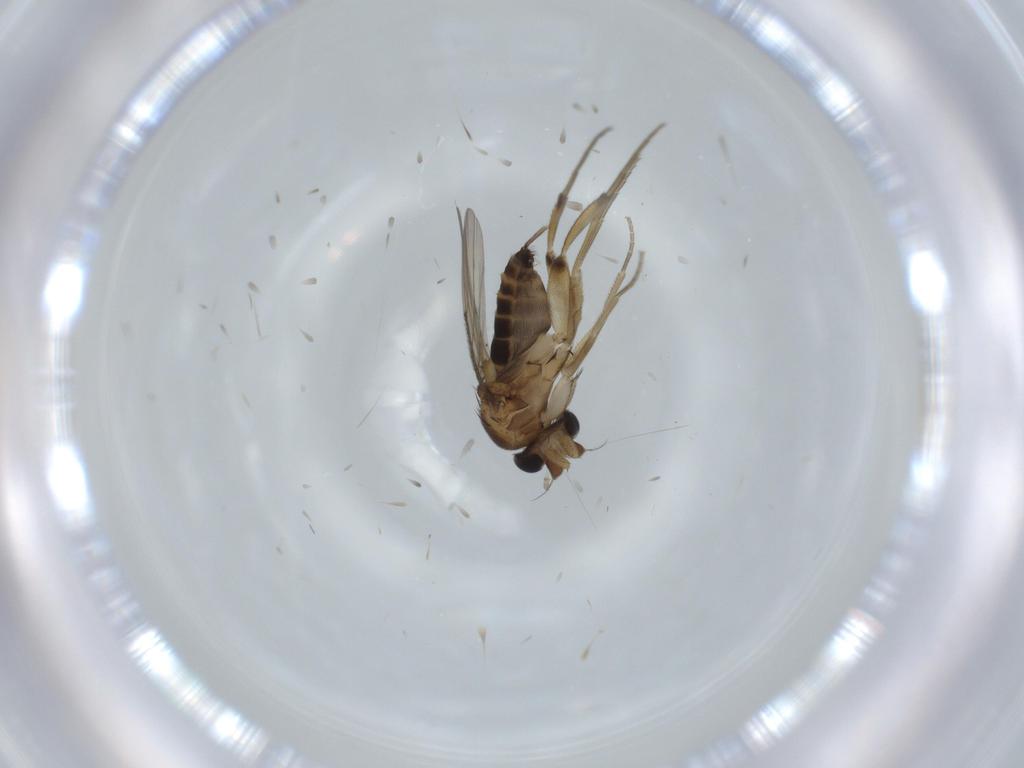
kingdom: Animalia
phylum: Arthropoda
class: Insecta
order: Diptera
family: Phoridae
